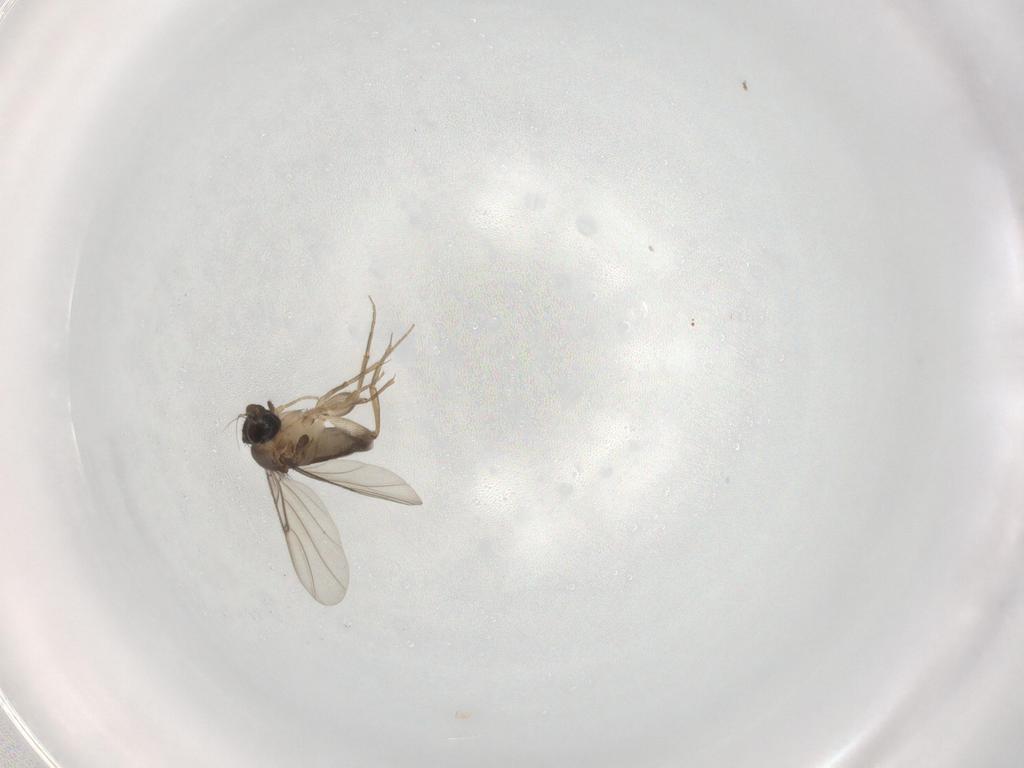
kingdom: Animalia
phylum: Arthropoda
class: Insecta
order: Diptera
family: Phoridae
